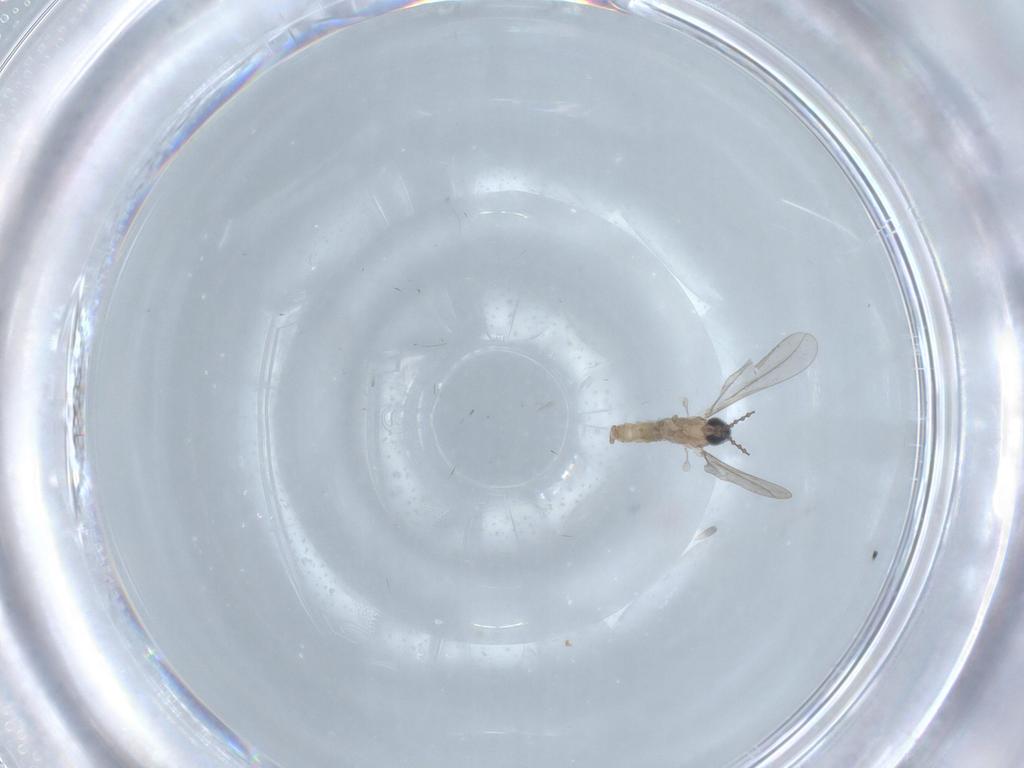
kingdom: Animalia
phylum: Arthropoda
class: Insecta
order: Diptera
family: Cecidomyiidae
